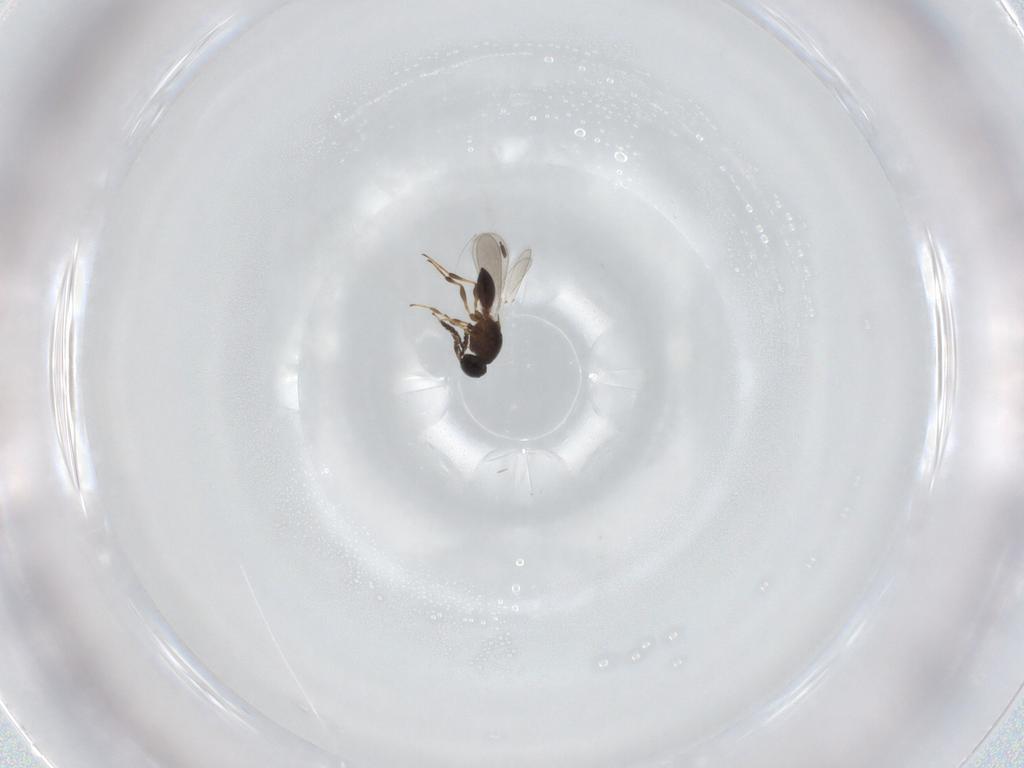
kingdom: Animalia
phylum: Arthropoda
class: Insecta
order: Hymenoptera
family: Platygastridae
